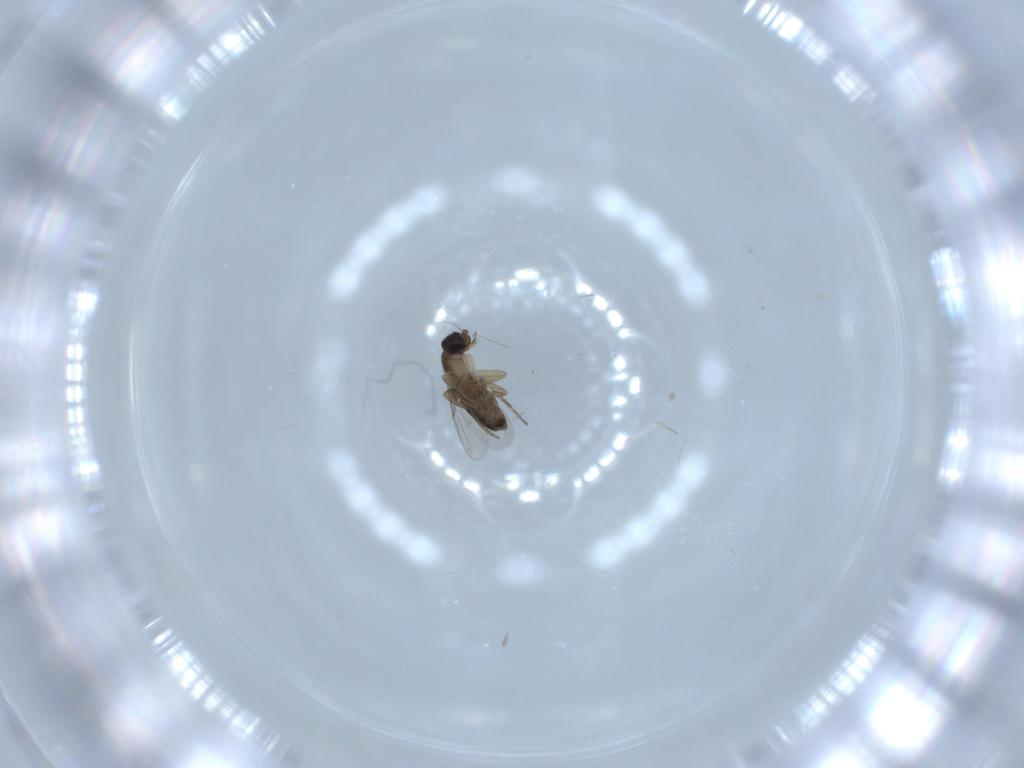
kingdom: Animalia
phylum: Arthropoda
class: Insecta
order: Diptera
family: Phoridae
